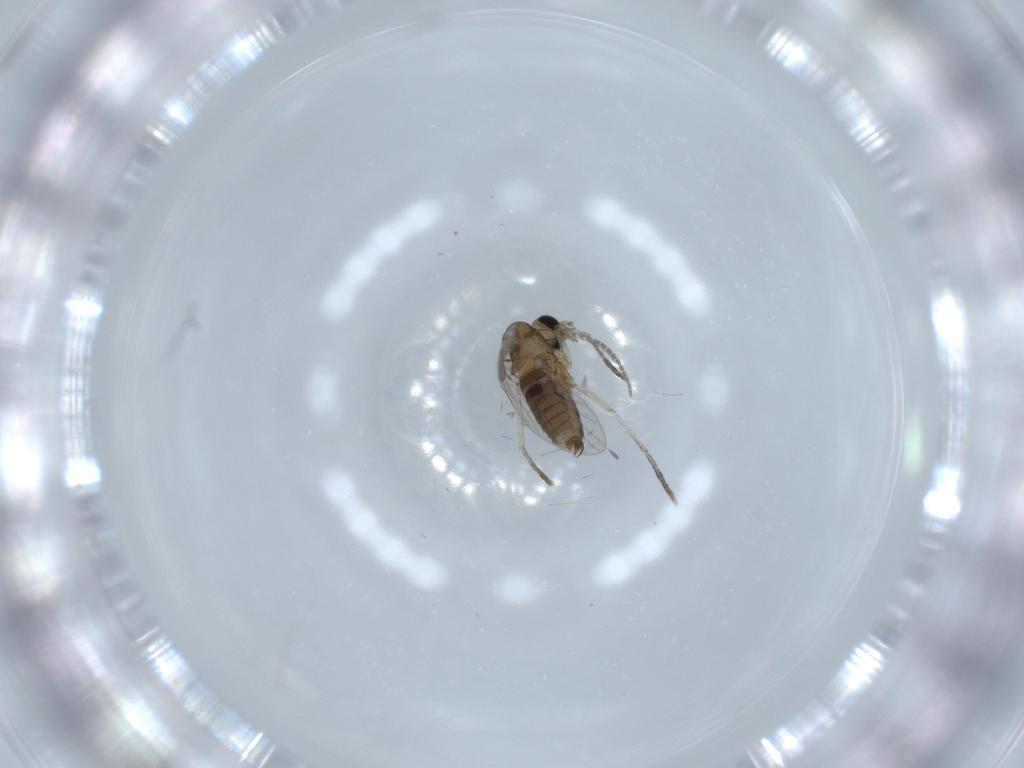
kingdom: Animalia
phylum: Arthropoda
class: Insecta
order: Diptera
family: Psychodidae
